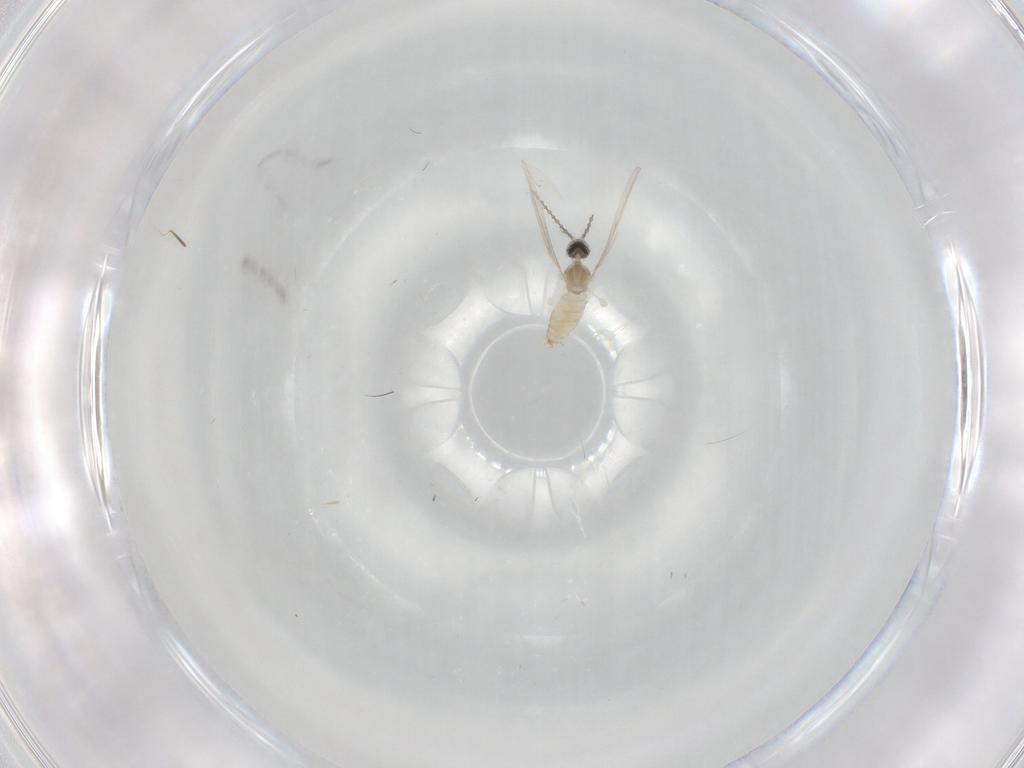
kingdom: Animalia
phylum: Arthropoda
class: Insecta
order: Diptera
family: Cecidomyiidae
